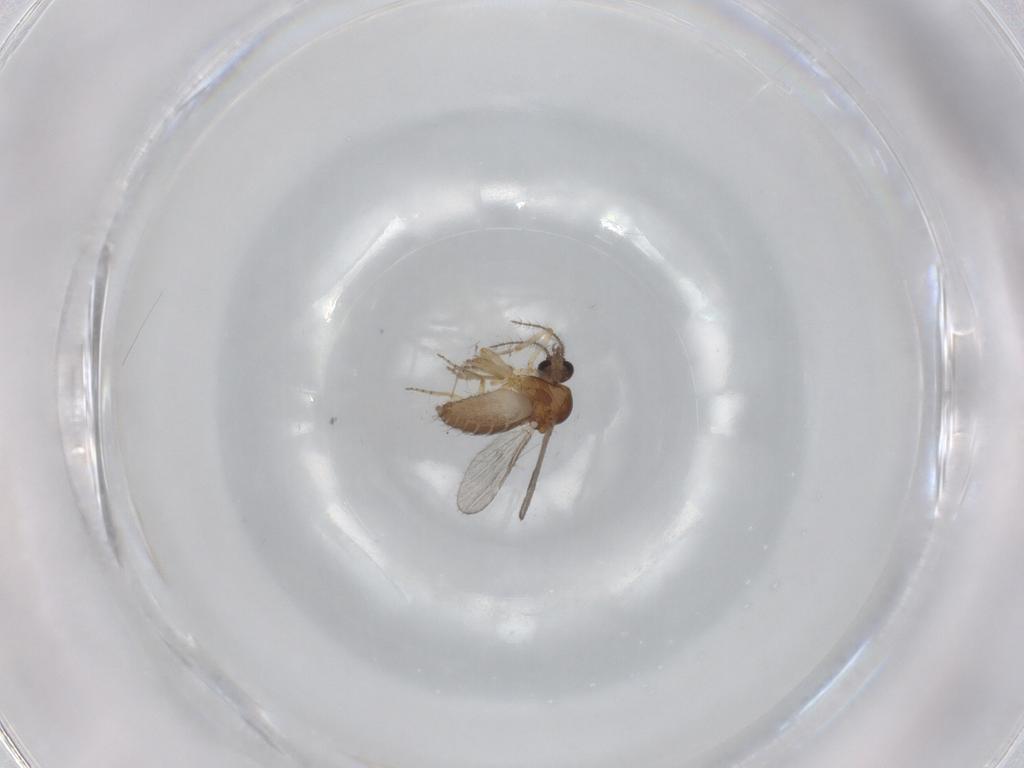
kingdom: Animalia
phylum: Arthropoda
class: Insecta
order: Diptera
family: Ceratopogonidae
